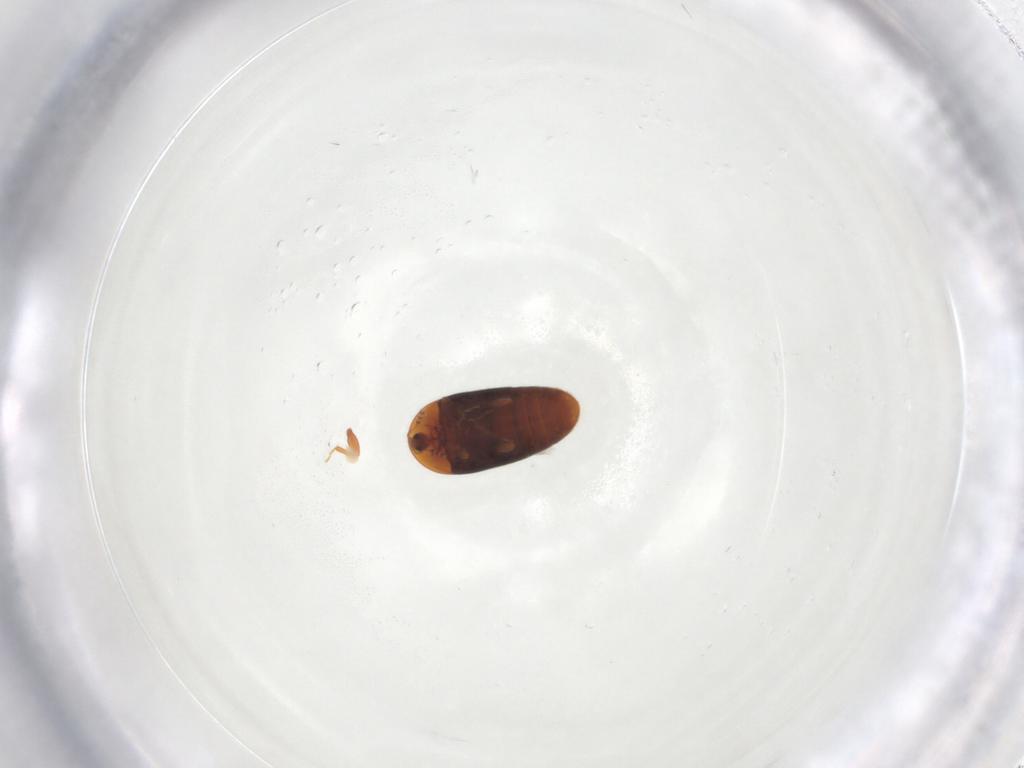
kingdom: Animalia
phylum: Arthropoda
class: Insecta
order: Coleoptera
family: Corylophidae
